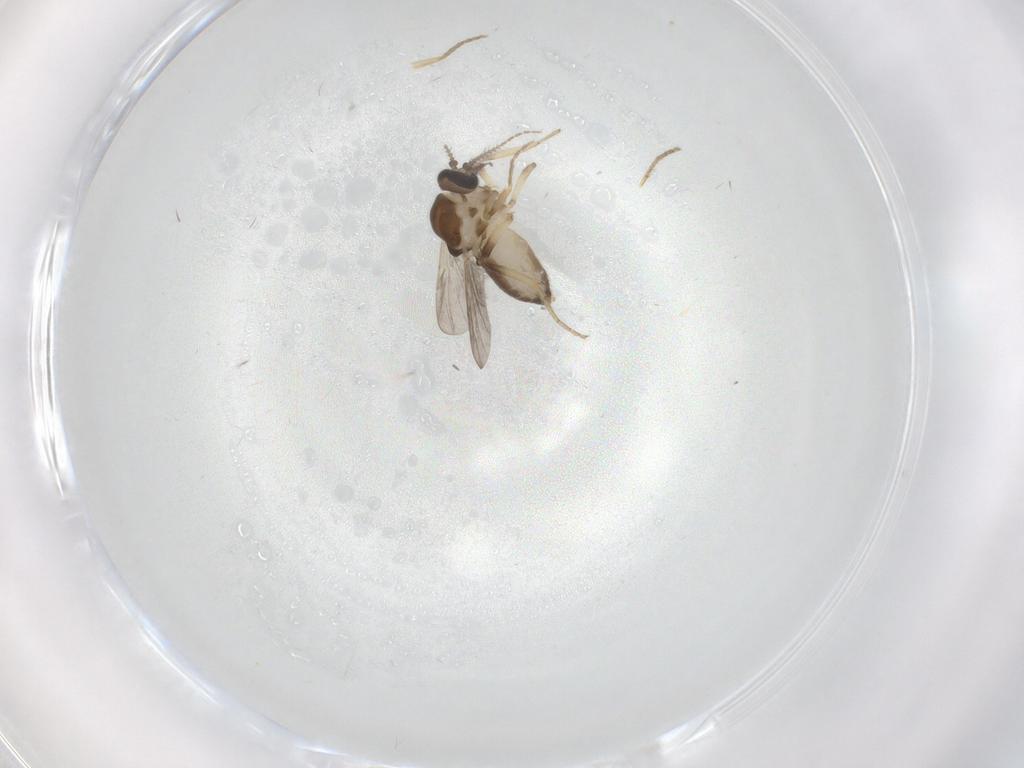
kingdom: Animalia
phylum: Arthropoda
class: Insecta
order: Diptera
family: Ceratopogonidae
